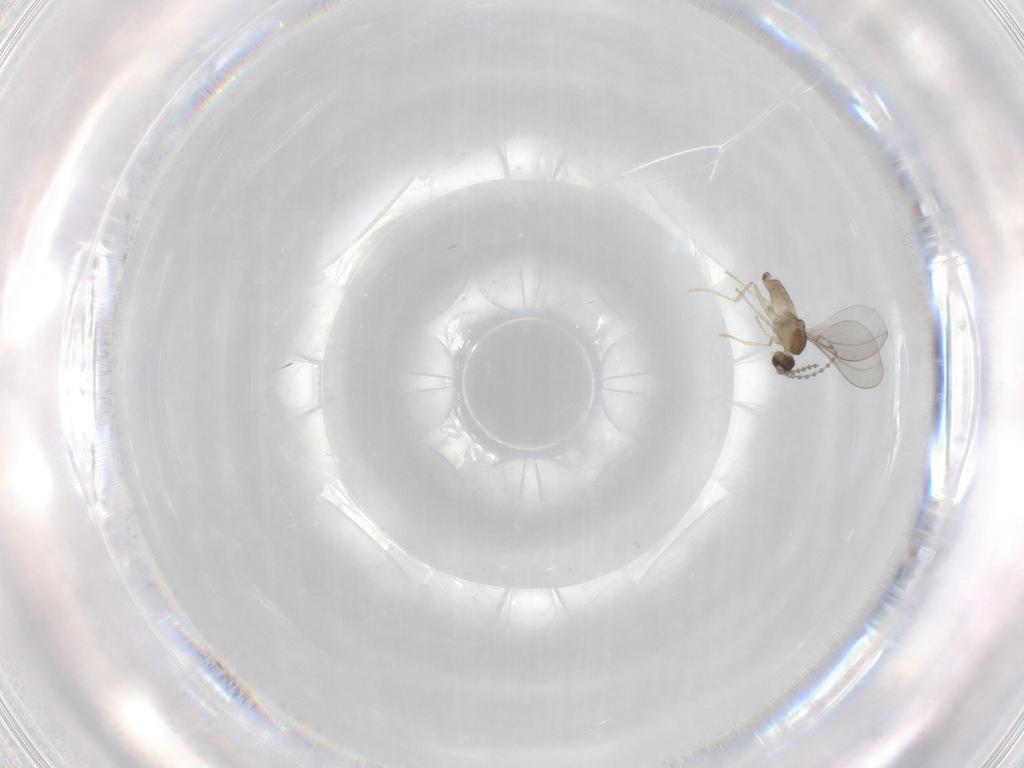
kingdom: Animalia
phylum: Arthropoda
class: Insecta
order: Diptera
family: Cecidomyiidae
